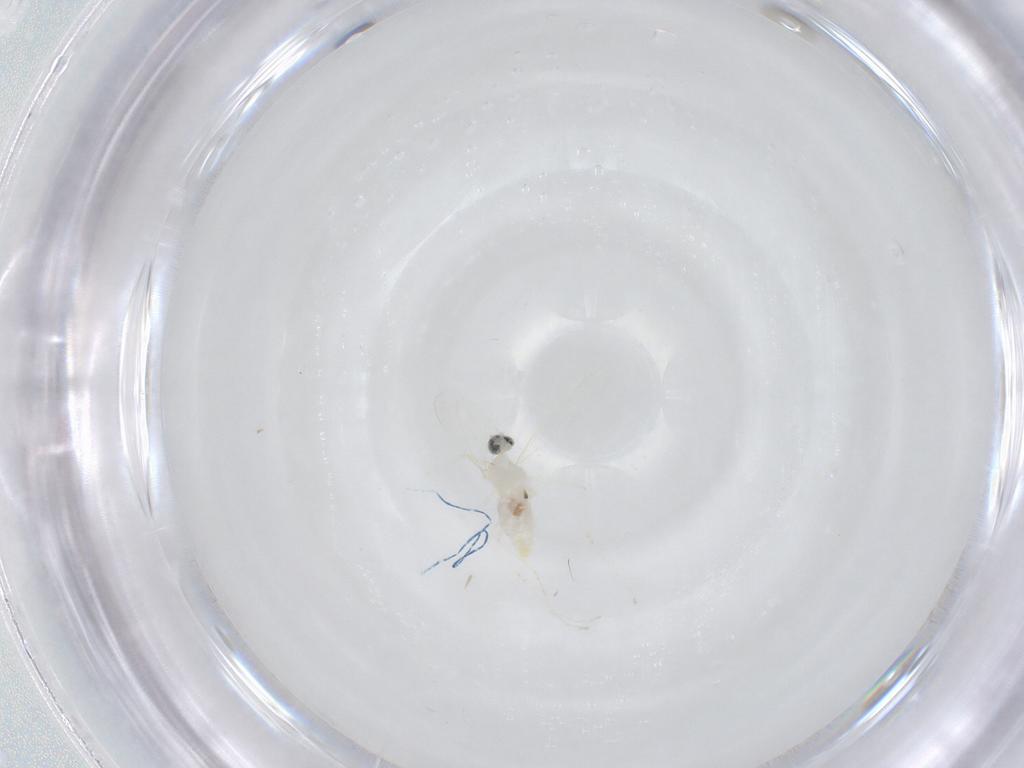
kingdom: Animalia
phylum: Arthropoda
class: Insecta
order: Diptera
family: Cecidomyiidae
